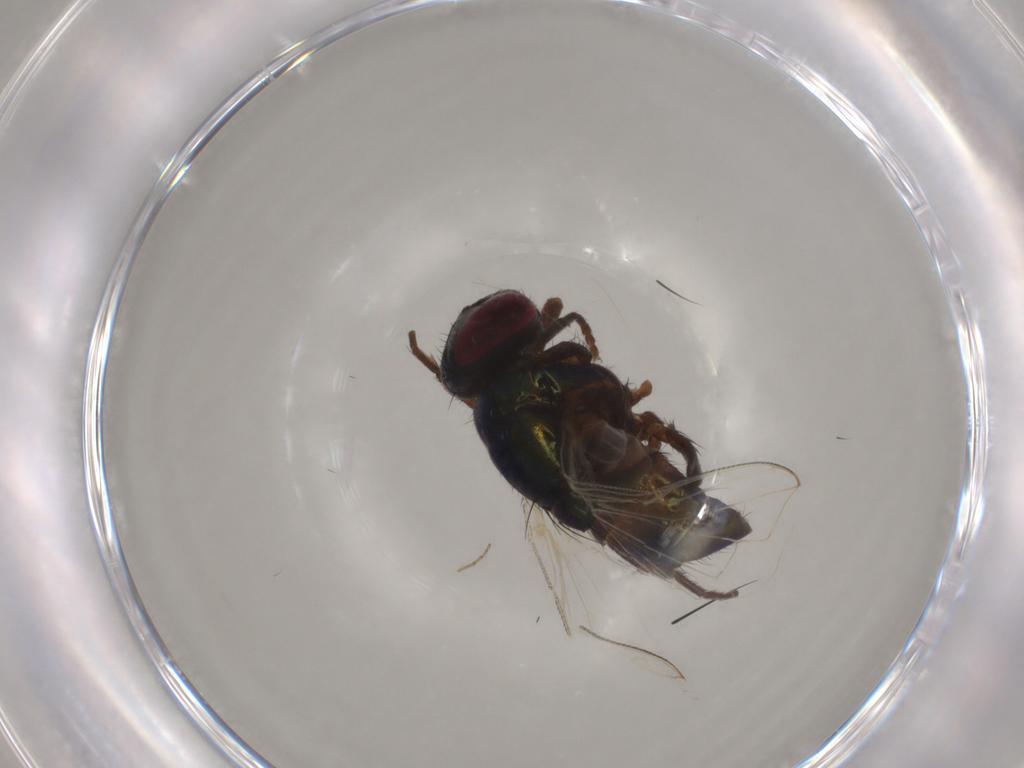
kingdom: Animalia
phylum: Arthropoda
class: Insecta
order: Diptera
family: Muscidae
